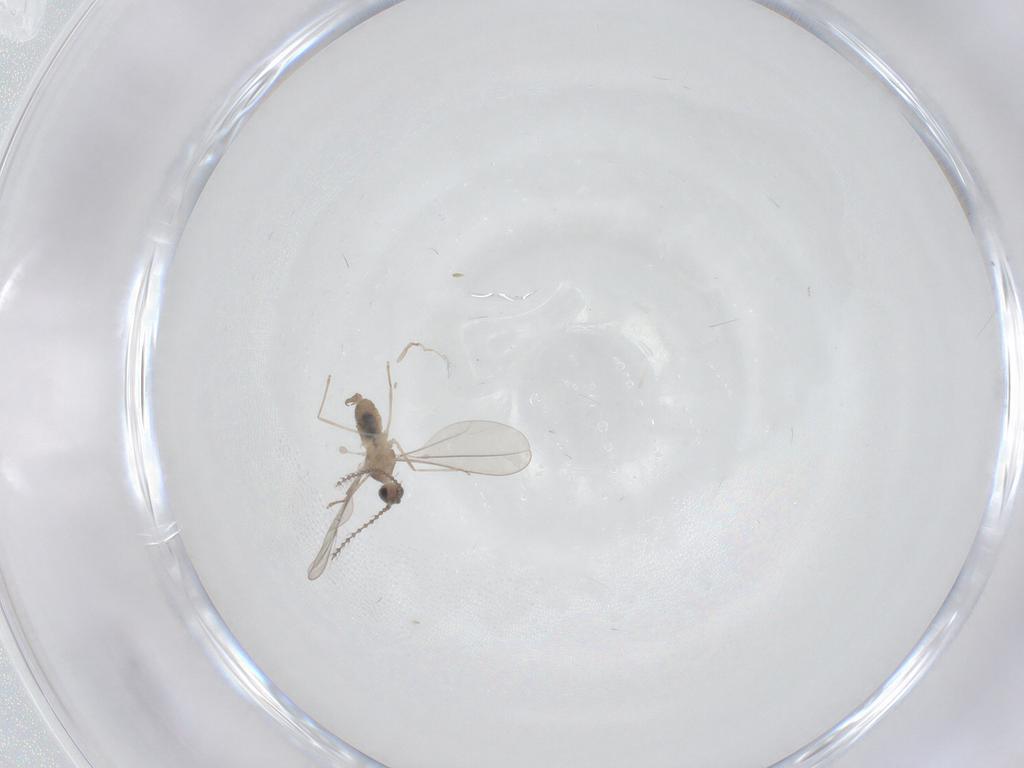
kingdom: Animalia
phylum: Arthropoda
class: Insecta
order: Diptera
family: Cecidomyiidae
